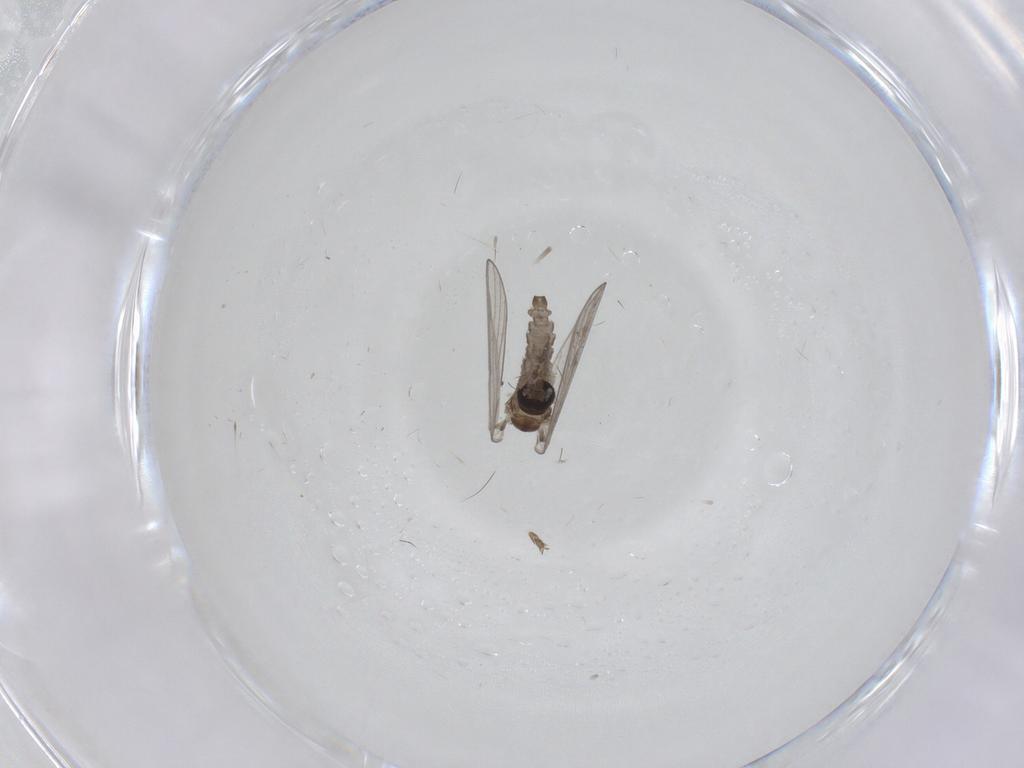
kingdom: Animalia
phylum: Arthropoda
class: Insecta
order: Diptera
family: Psychodidae
